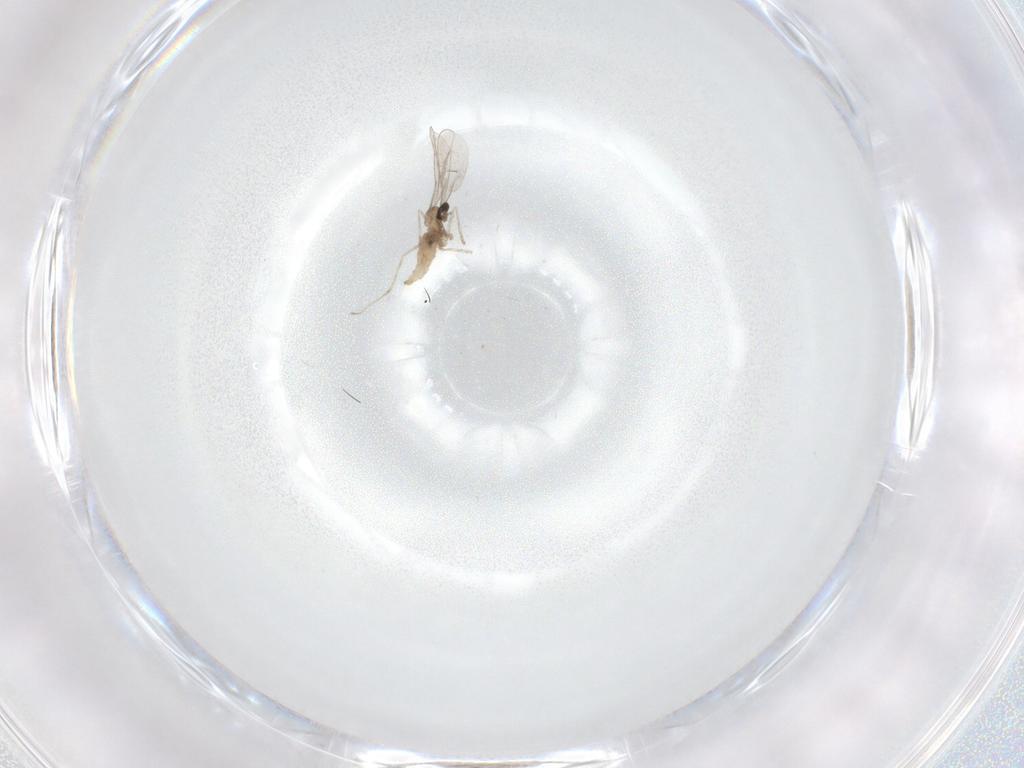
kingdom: Animalia
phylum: Arthropoda
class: Insecta
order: Diptera
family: Cecidomyiidae
